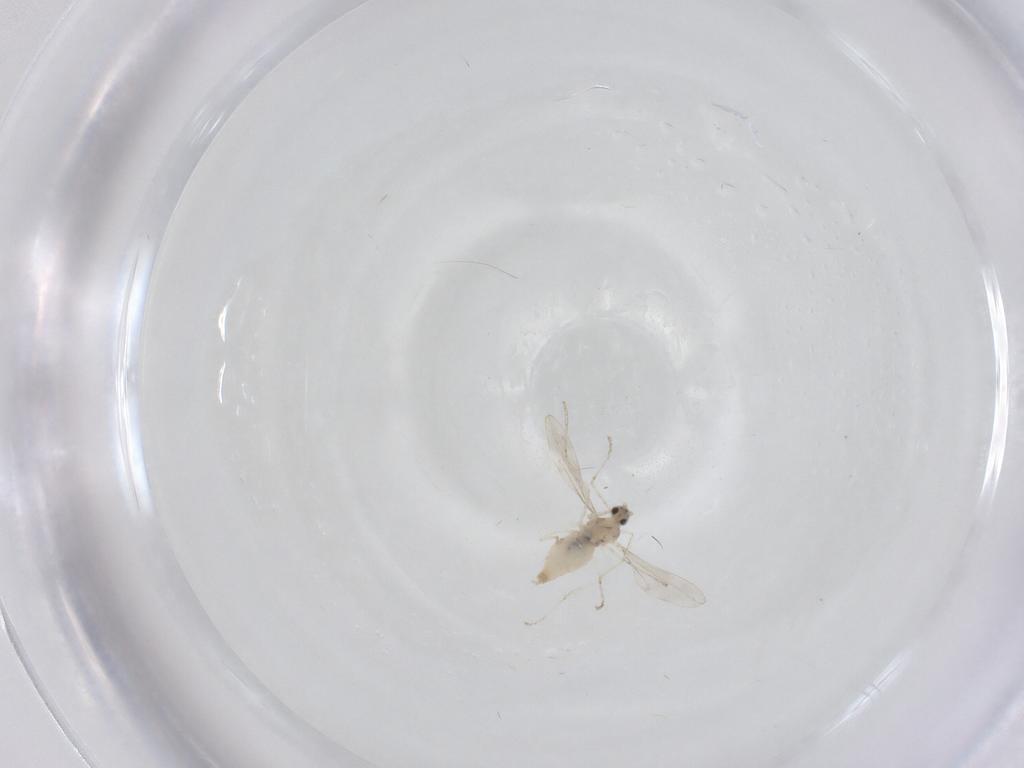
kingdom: Animalia
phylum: Arthropoda
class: Insecta
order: Diptera
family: Cecidomyiidae
